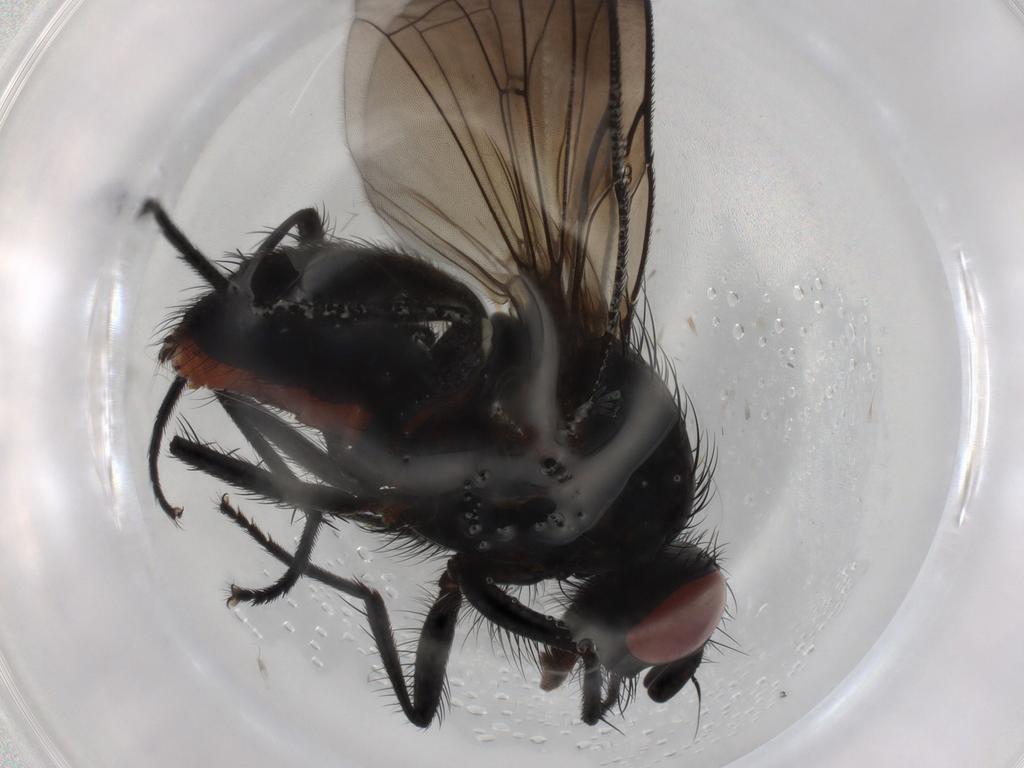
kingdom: Animalia
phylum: Arthropoda
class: Insecta
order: Diptera
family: Anthomyiidae
